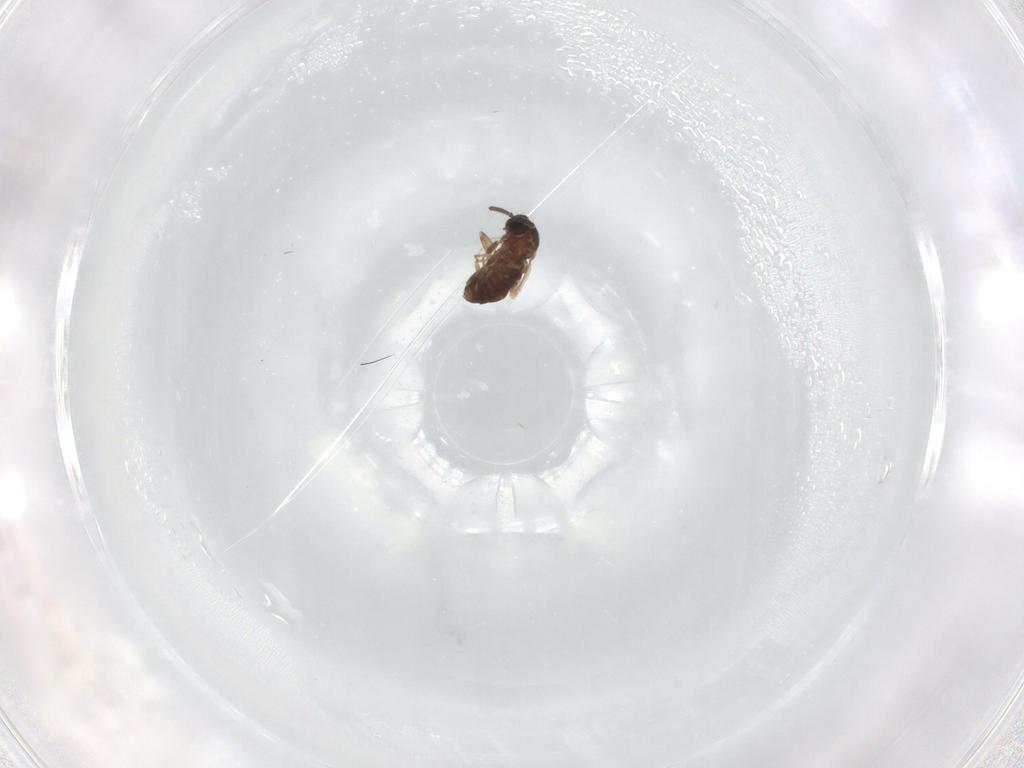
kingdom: Animalia
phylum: Arthropoda
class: Insecta
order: Diptera
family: Scatopsidae
